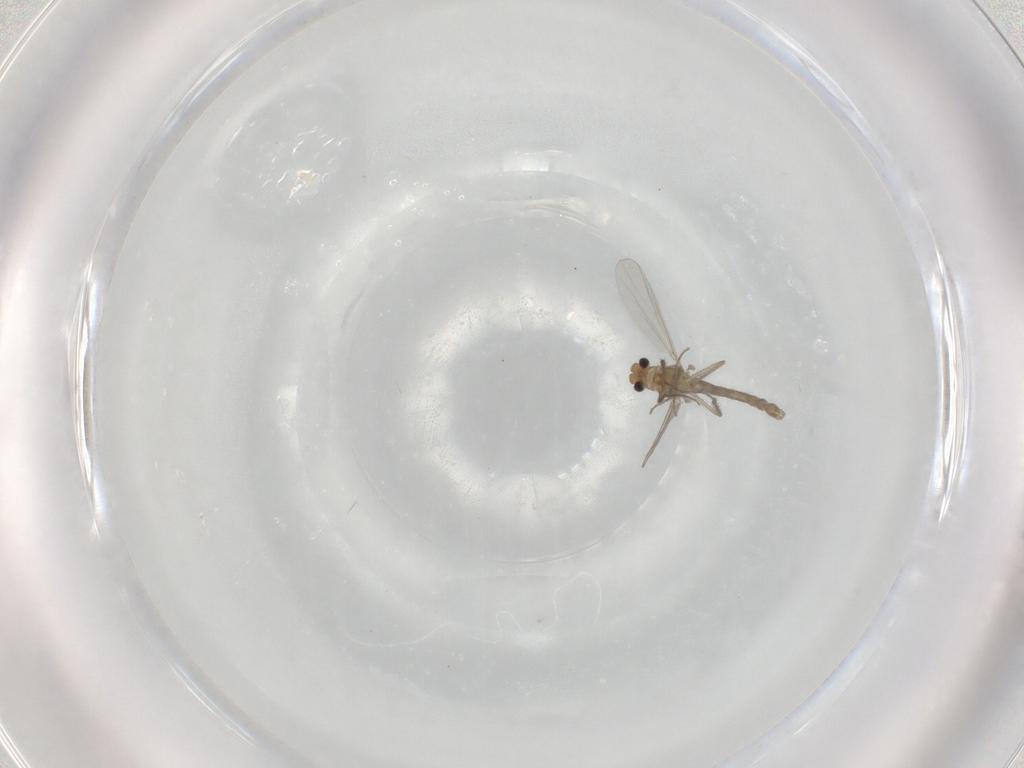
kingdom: Animalia
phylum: Arthropoda
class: Insecta
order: Diptera
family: Chironomidae
